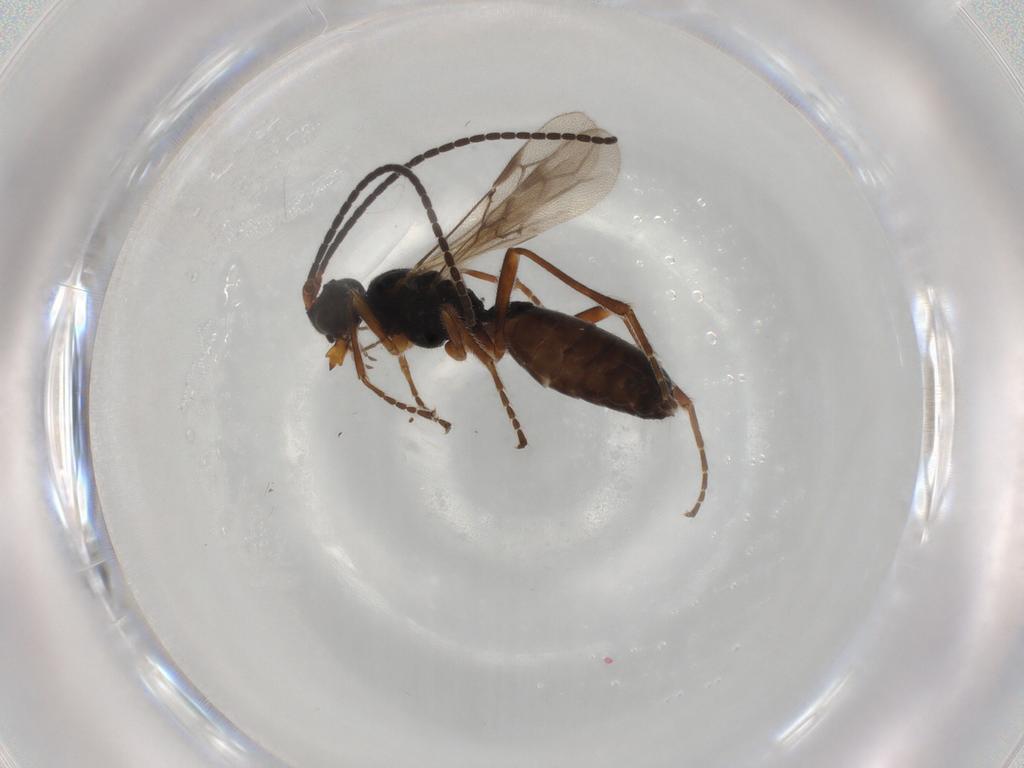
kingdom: Animalia
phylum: Arthropoda
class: Insecta
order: Hymenoptera
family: Braconidae
